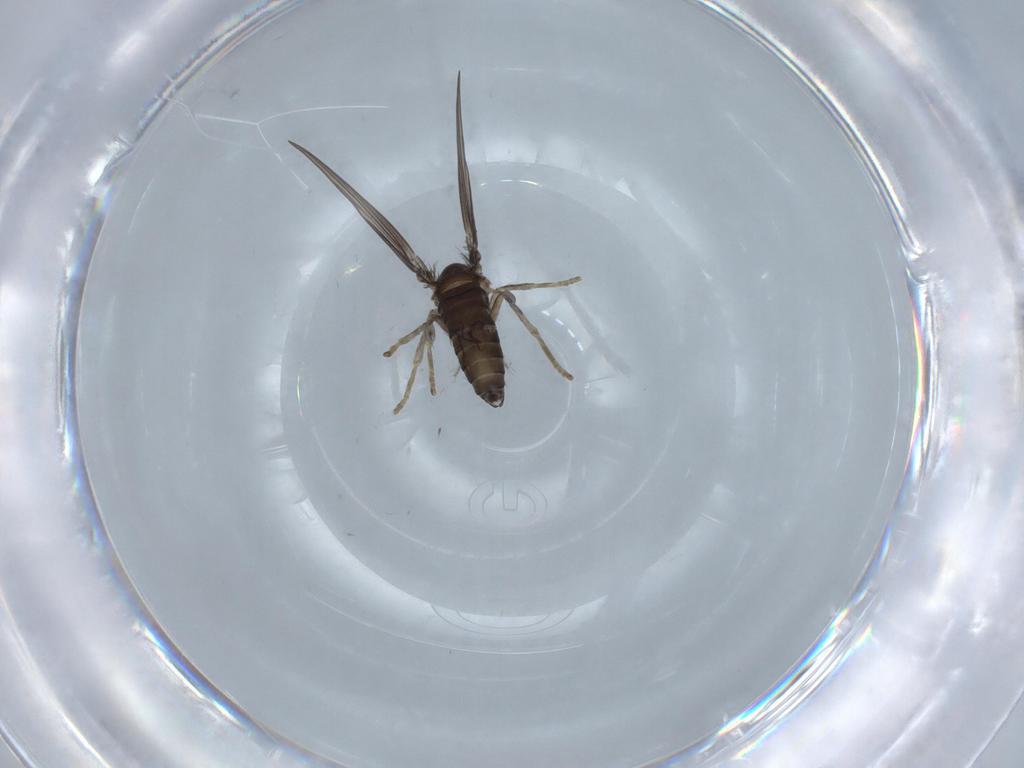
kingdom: Animalia
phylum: Arthropoda
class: Insecta
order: Diptera
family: Psychodidae
